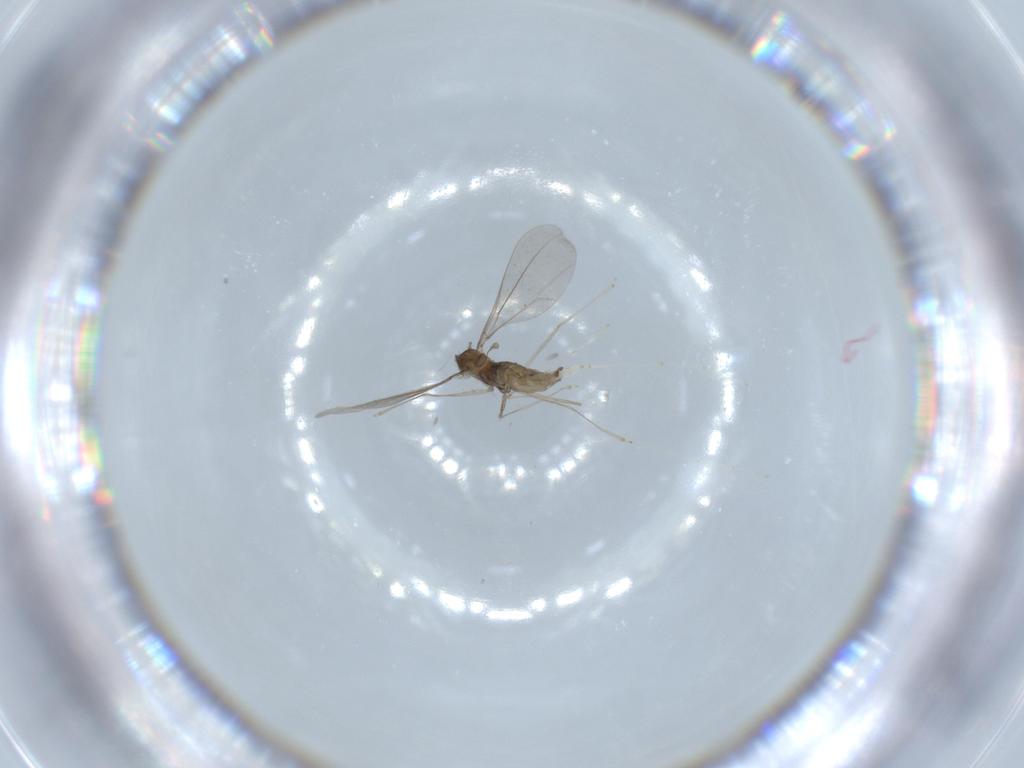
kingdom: Animalia
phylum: Arthropoda
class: Insecta
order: Diptera
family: Cecidomyiidae
